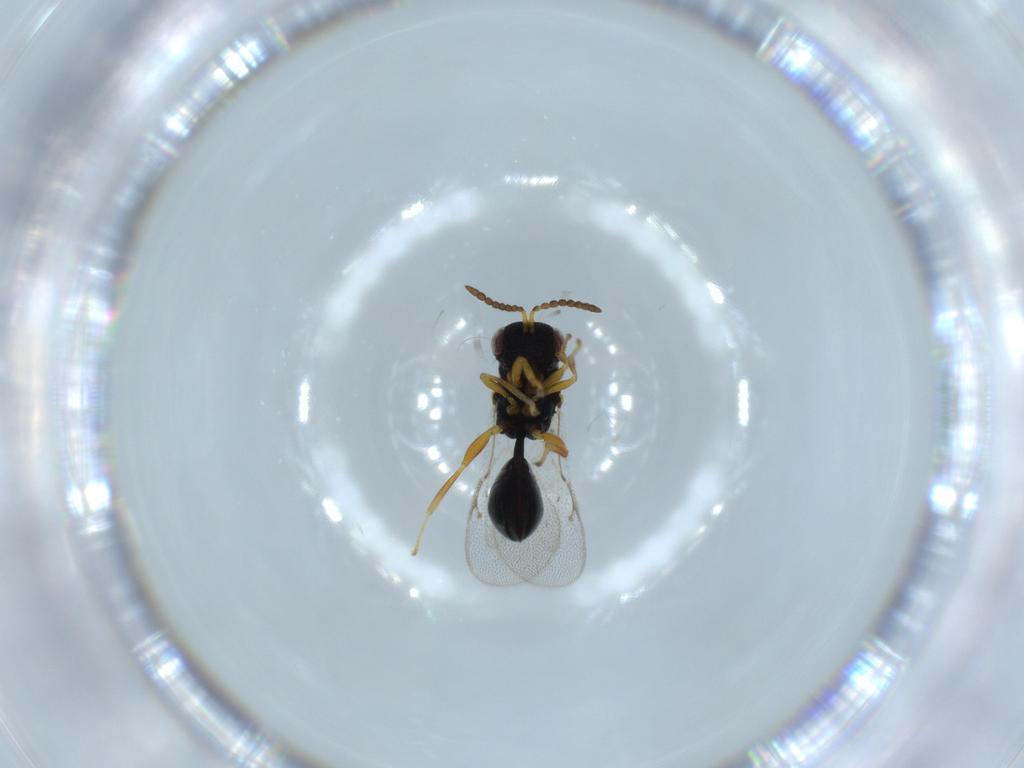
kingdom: Animalia
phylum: Arthropoda
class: Insecta
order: Hymenoptera
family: Eurytomidae
